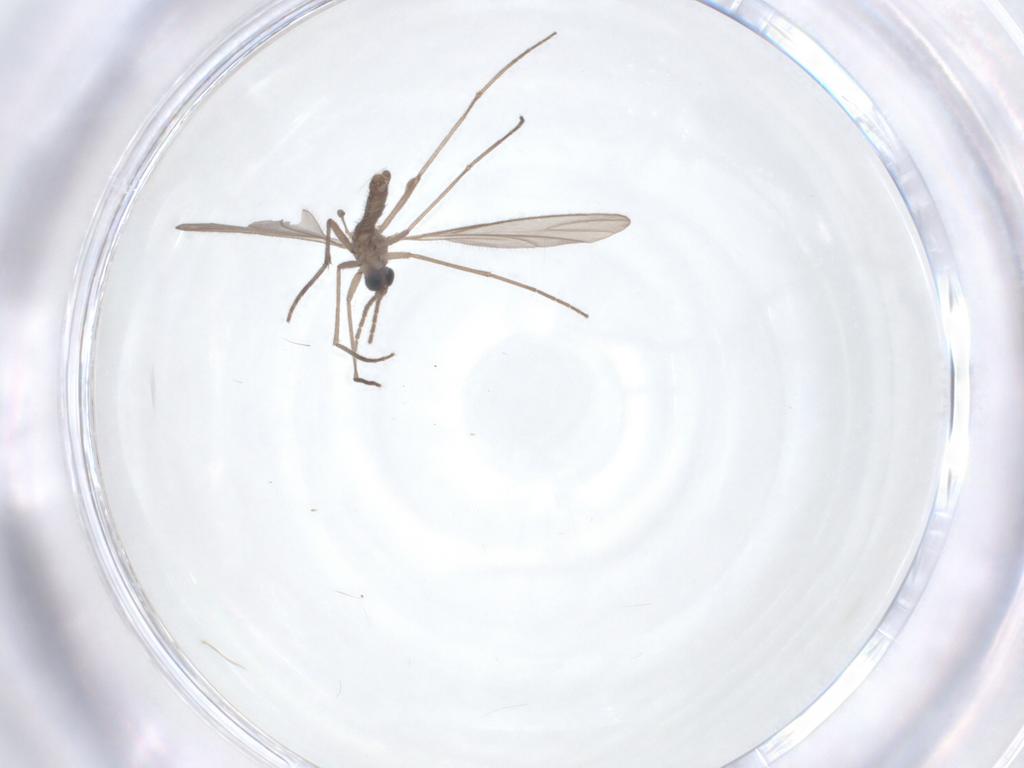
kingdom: Animalia
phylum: Arthropoda
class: Insecta
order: Diptera
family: Sciaridae
